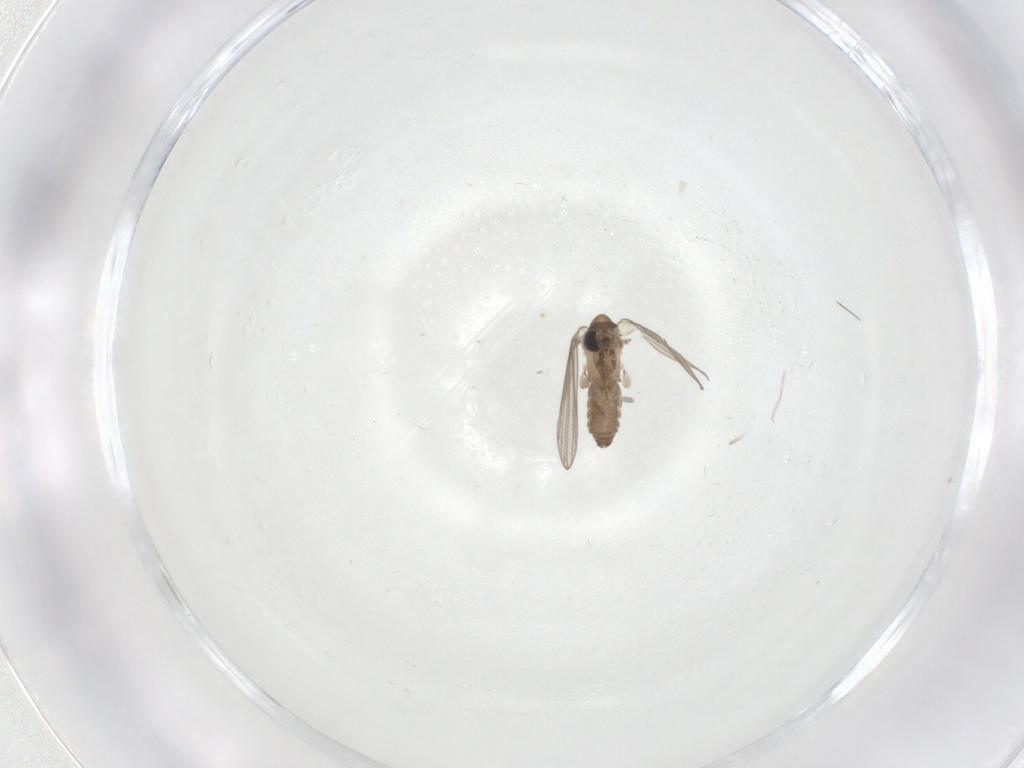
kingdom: Animalia
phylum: Arthropoda
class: Insecta
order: Diptera
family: Psychodidae
